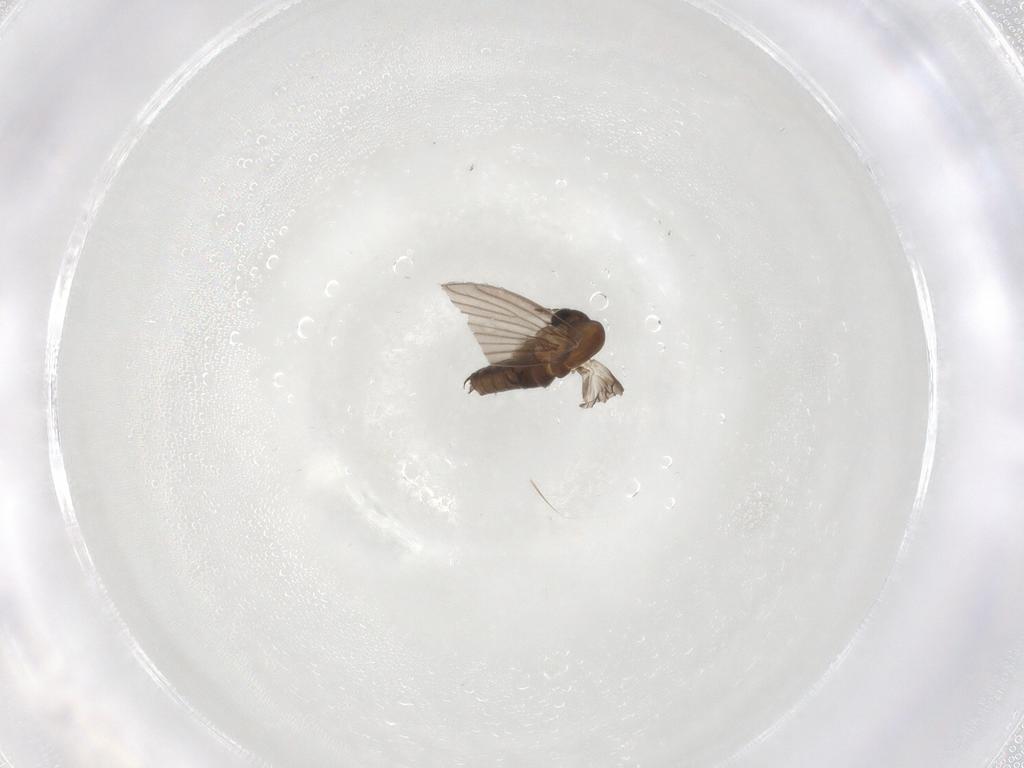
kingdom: Animalia
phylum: Arthropoda
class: Insecta
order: Diptera
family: Psychodidae
